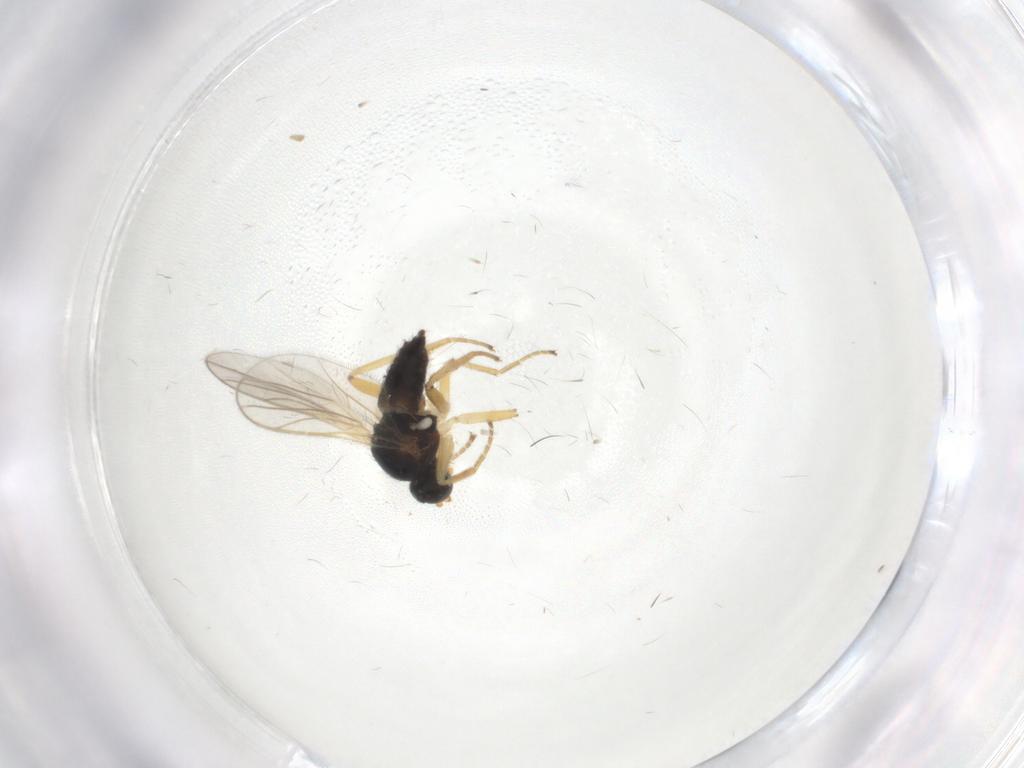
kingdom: Animalia
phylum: Arthropoda
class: Insecta
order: Diptera
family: Hybotidae
